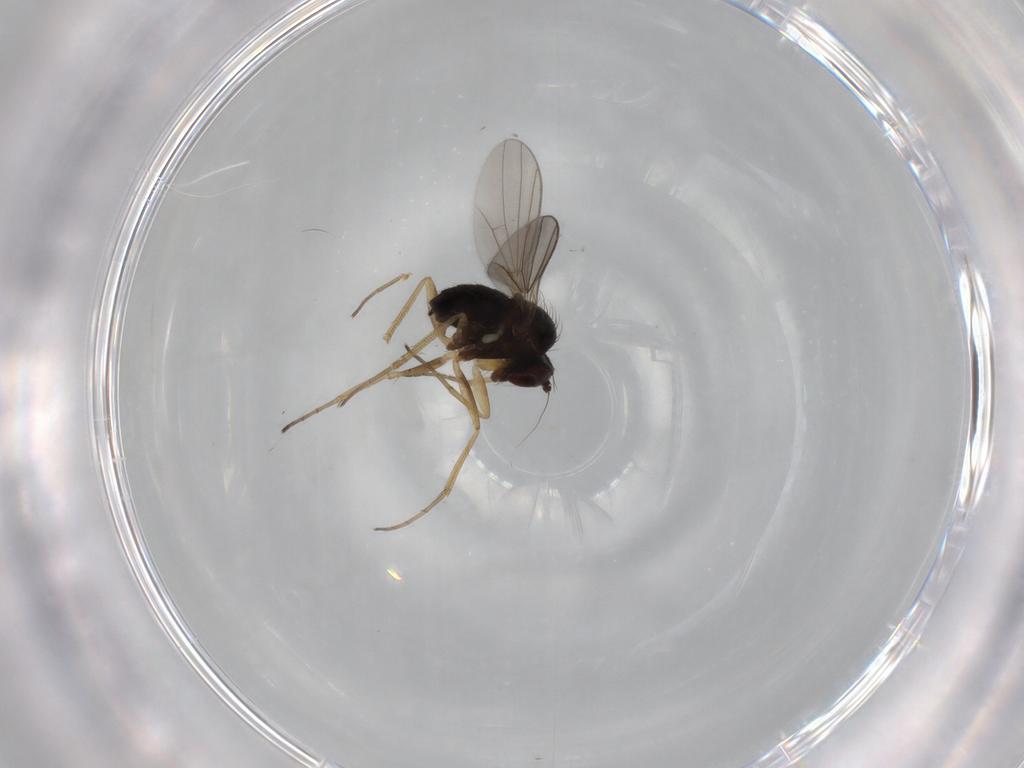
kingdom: Animalia
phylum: Arthropoda
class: Insecta
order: Diptera
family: Dolichopodidae
